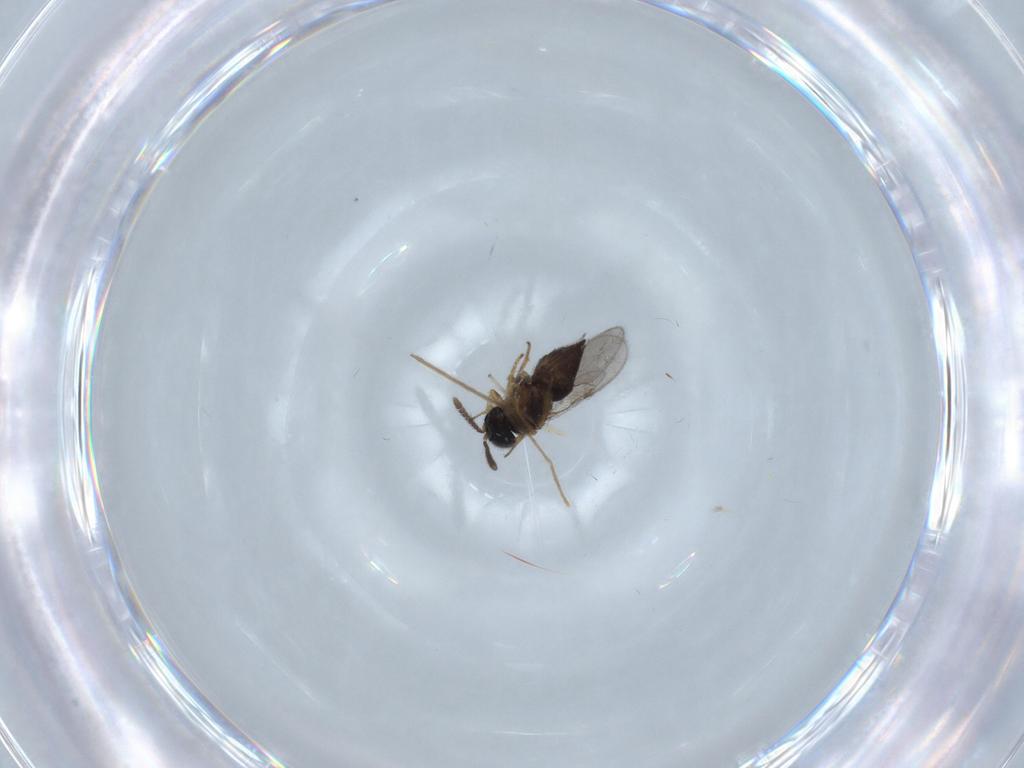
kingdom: Animalia
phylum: Arthropoda
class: Insecta
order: Hymenoptera
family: Scelionidae
